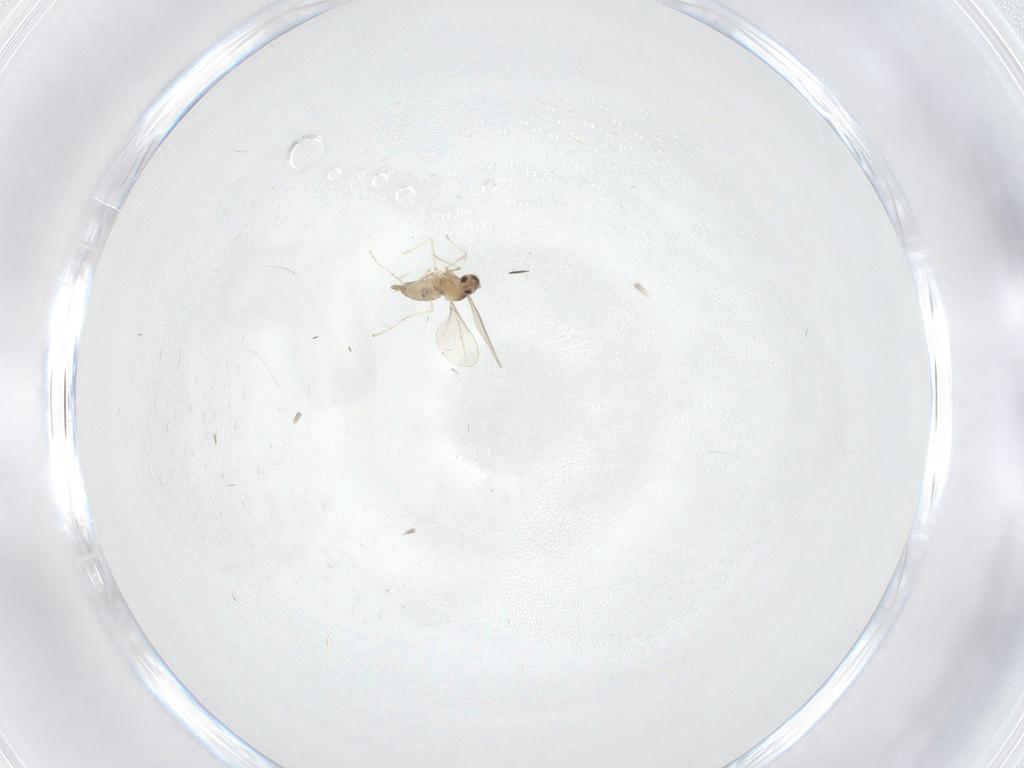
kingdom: Animalia
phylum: Arthropoda
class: Insecta
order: Diptera
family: Cecidomyiidae
